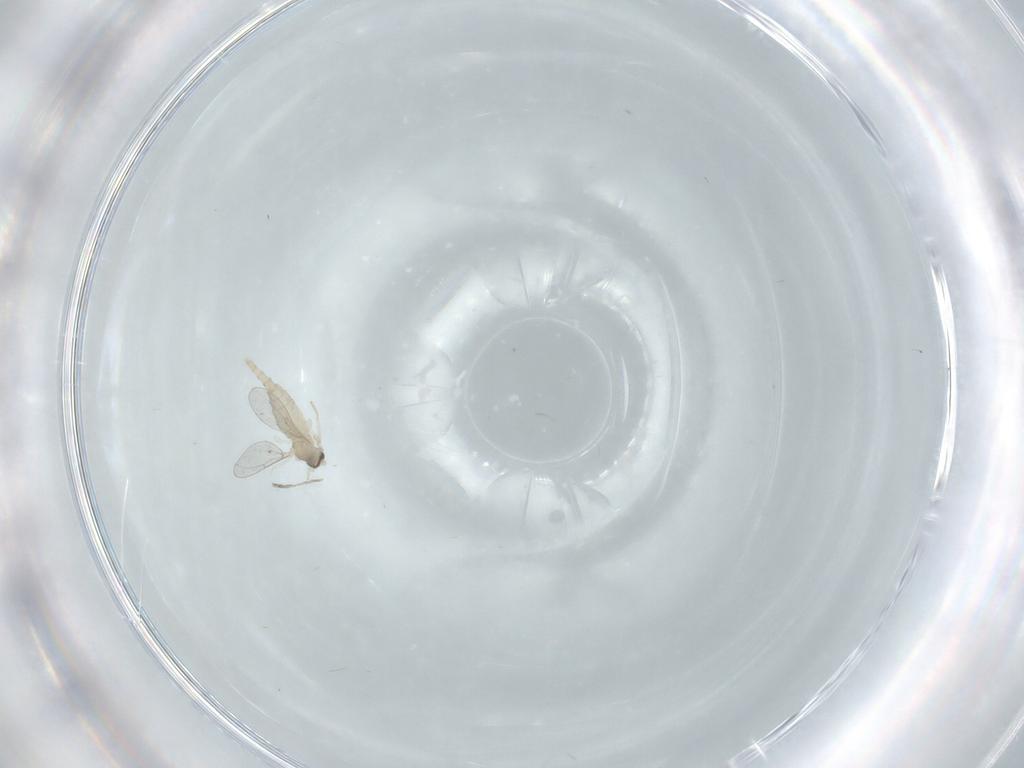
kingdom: Animalia
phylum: Arthropoda
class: Insecta
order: Diptera
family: Cecidomyiidae
